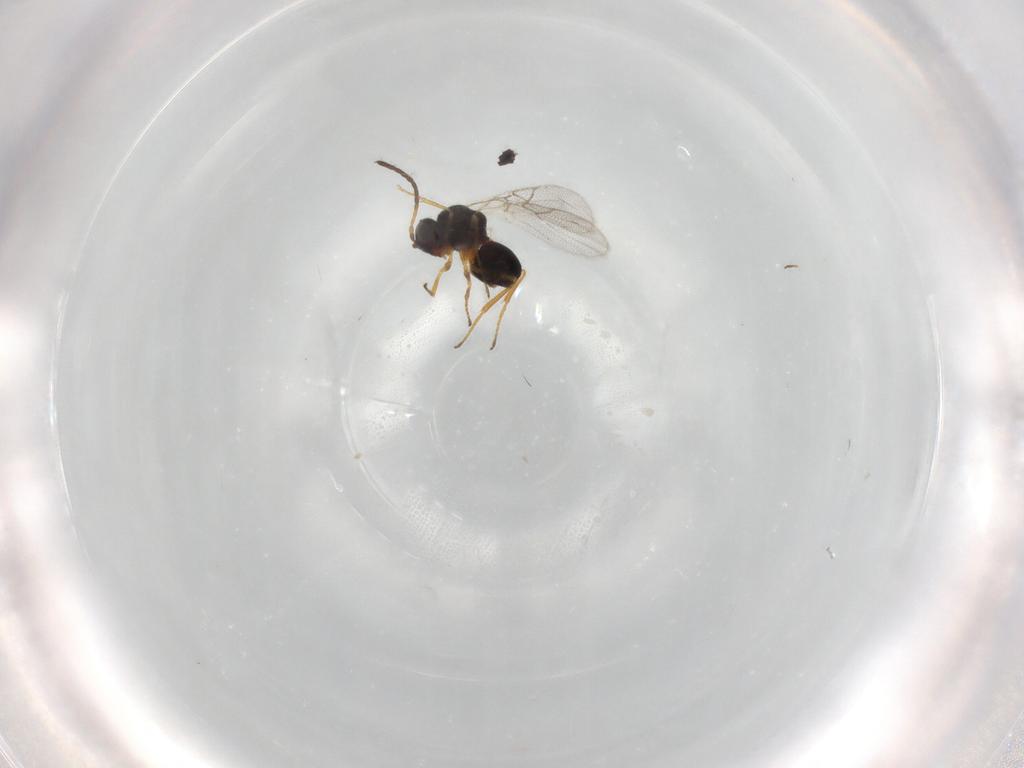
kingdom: Animalia
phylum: Arthropoda
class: Insecta
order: Hymenoptera
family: Figitidae
